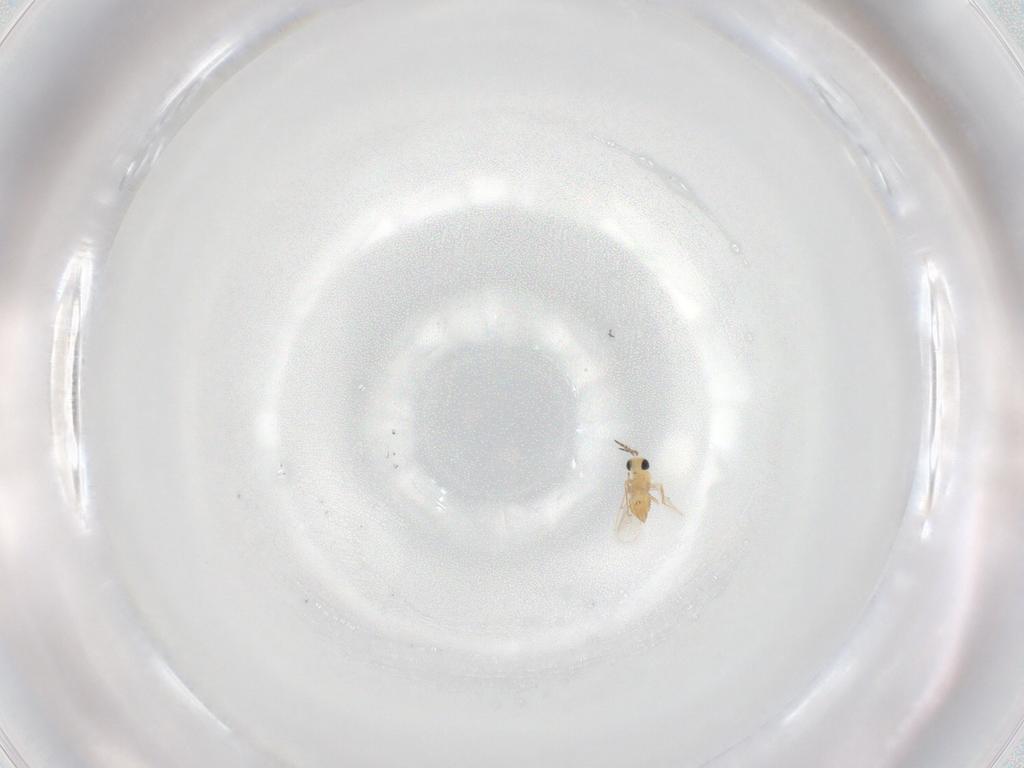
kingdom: Animalia
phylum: Arthropoda
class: Insecta
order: Hymenoptera
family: Trichogrammatidae
